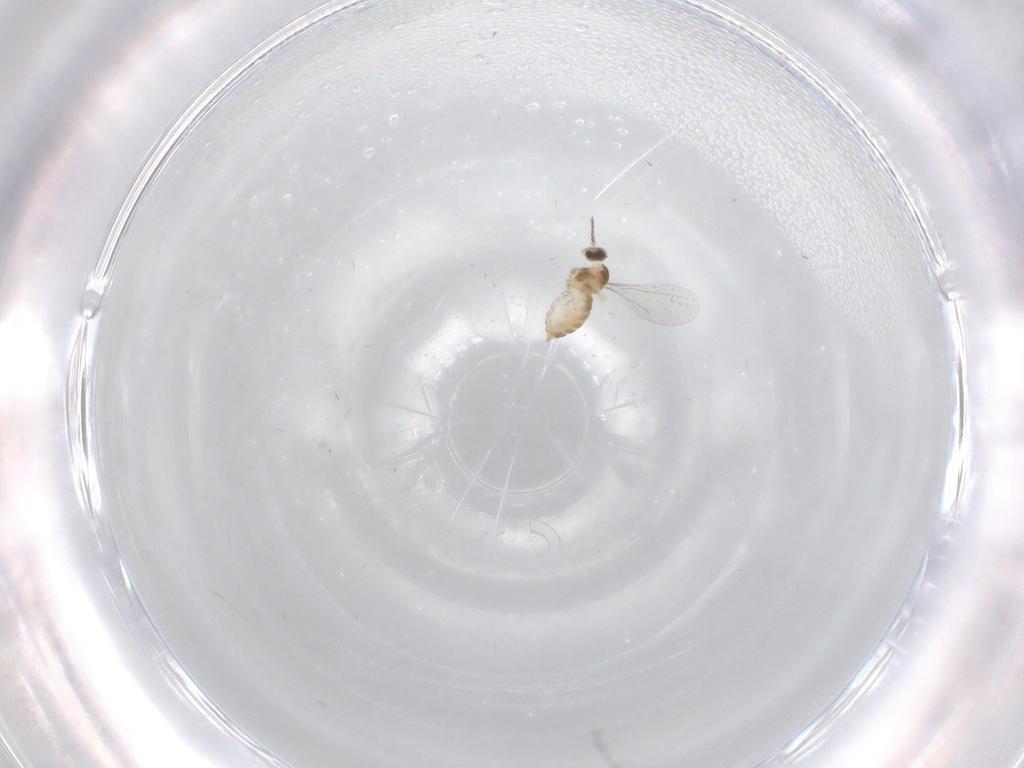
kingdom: Animalia
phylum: Arthropoda
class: Insecta
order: Diptera
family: Cecidomyiidae
